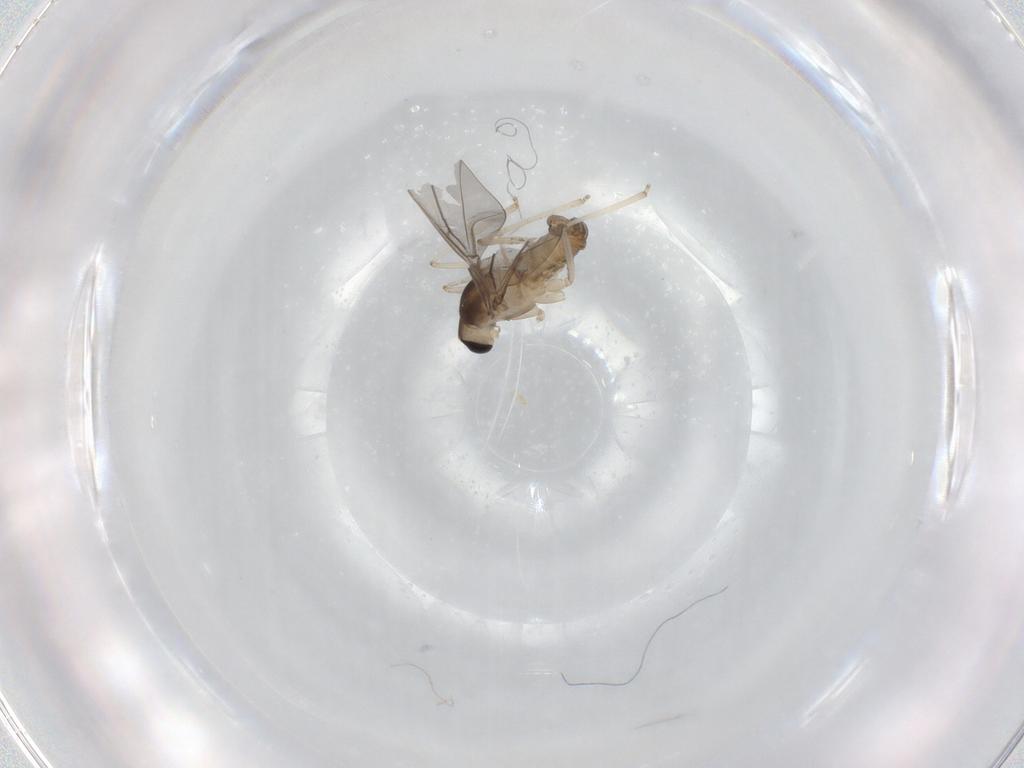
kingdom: Animalia
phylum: Arthropoda
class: Insecta
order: Diptera
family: Cecidomyiidae
